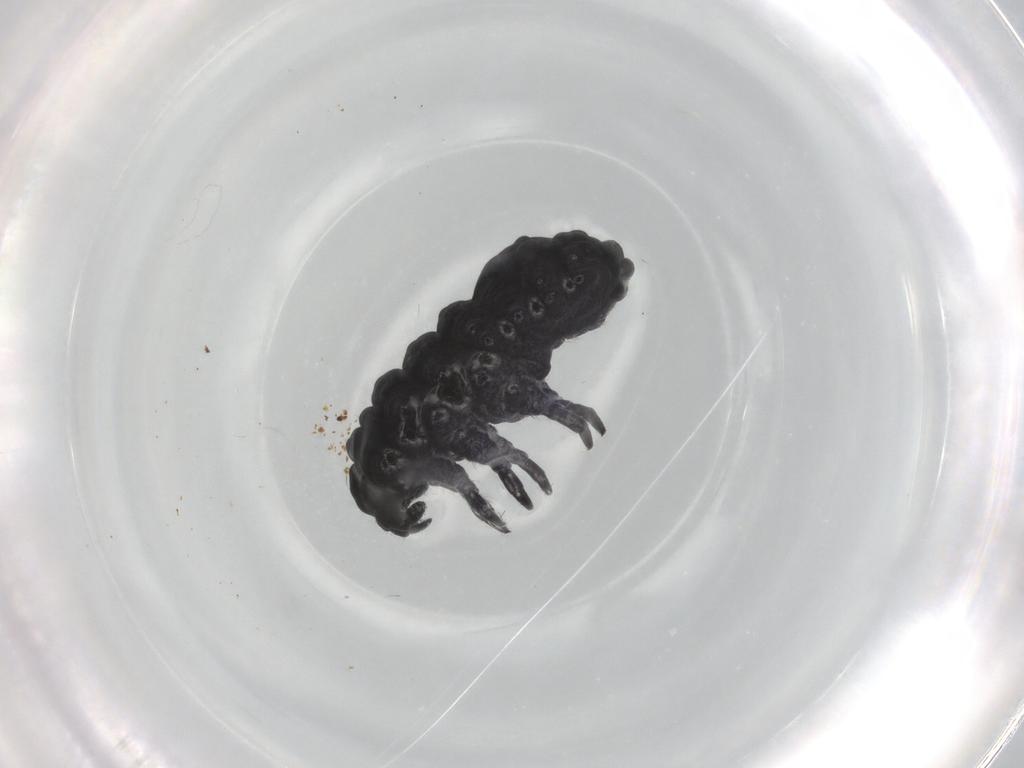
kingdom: Animalia
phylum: Arthropoda
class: Collembola
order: Poduromorpha
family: Neanuridae
